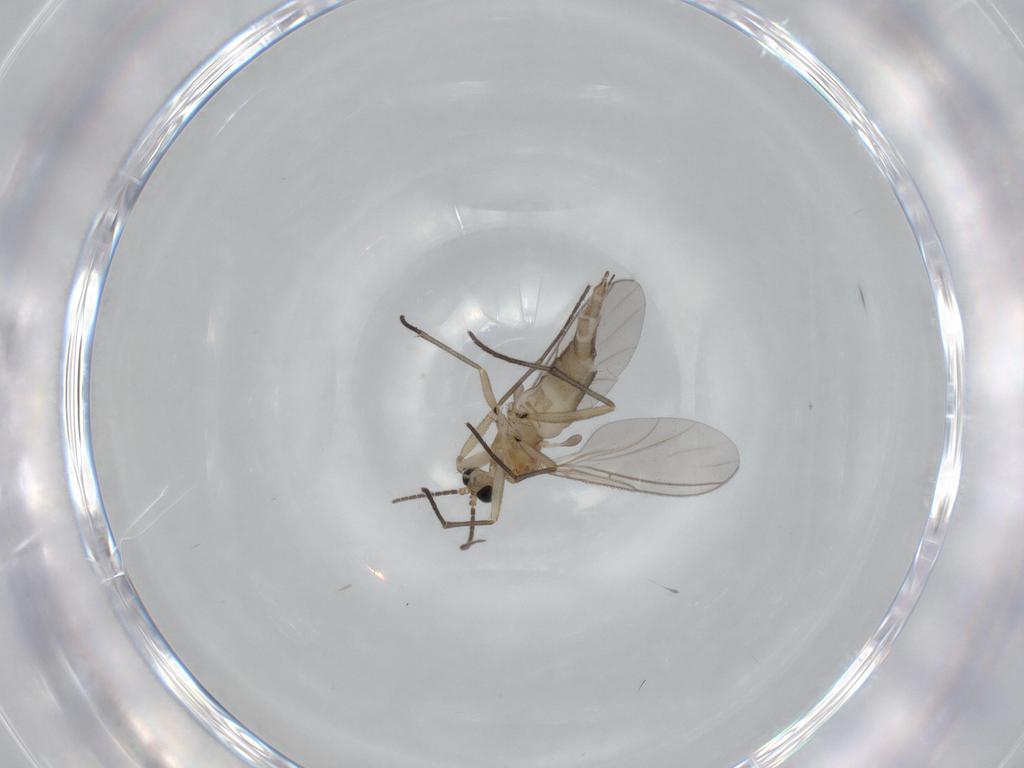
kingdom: Animalia
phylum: Arthropoda
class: Insecta
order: Diptera
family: Sciaridae
